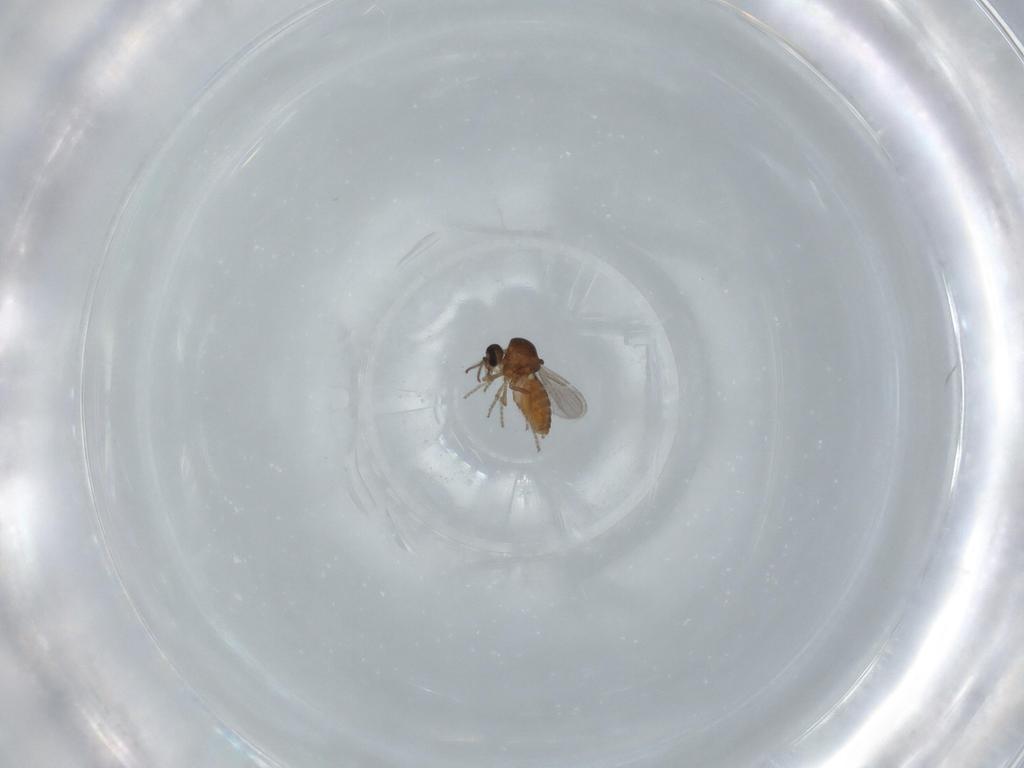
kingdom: Animalia
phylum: Arthropoda
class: Insecta
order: Diptera
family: Ceratopogonidae
